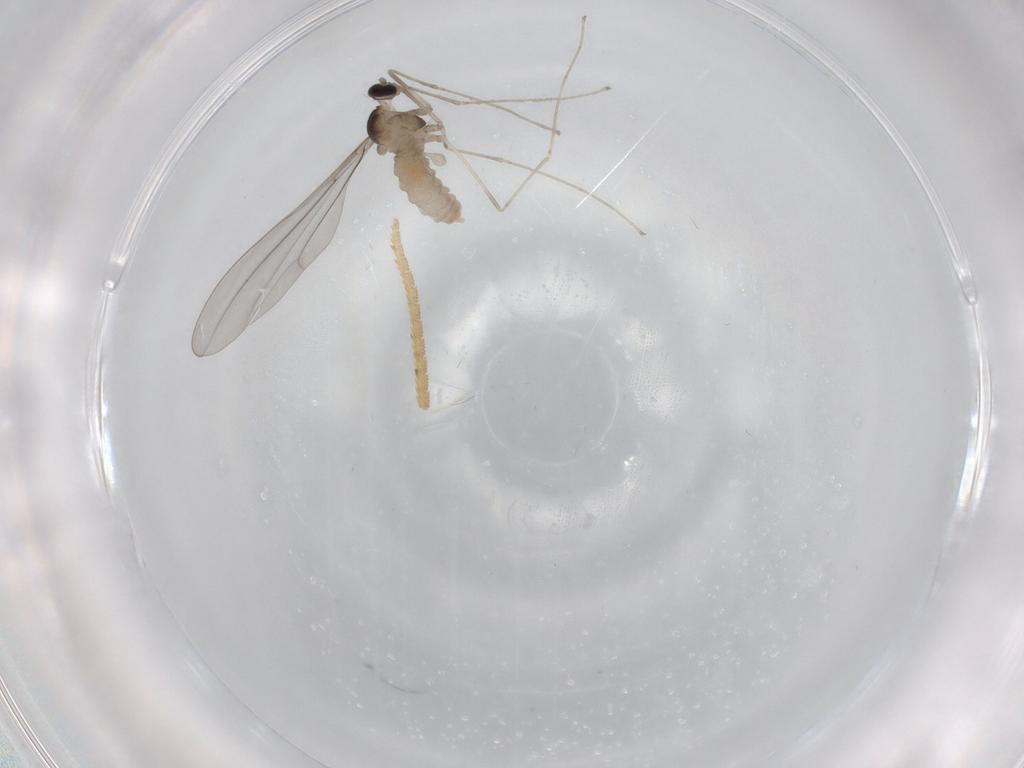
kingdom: Animalia
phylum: Arthropoda
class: Insecta
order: Diptera
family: Cecidomyiidae
